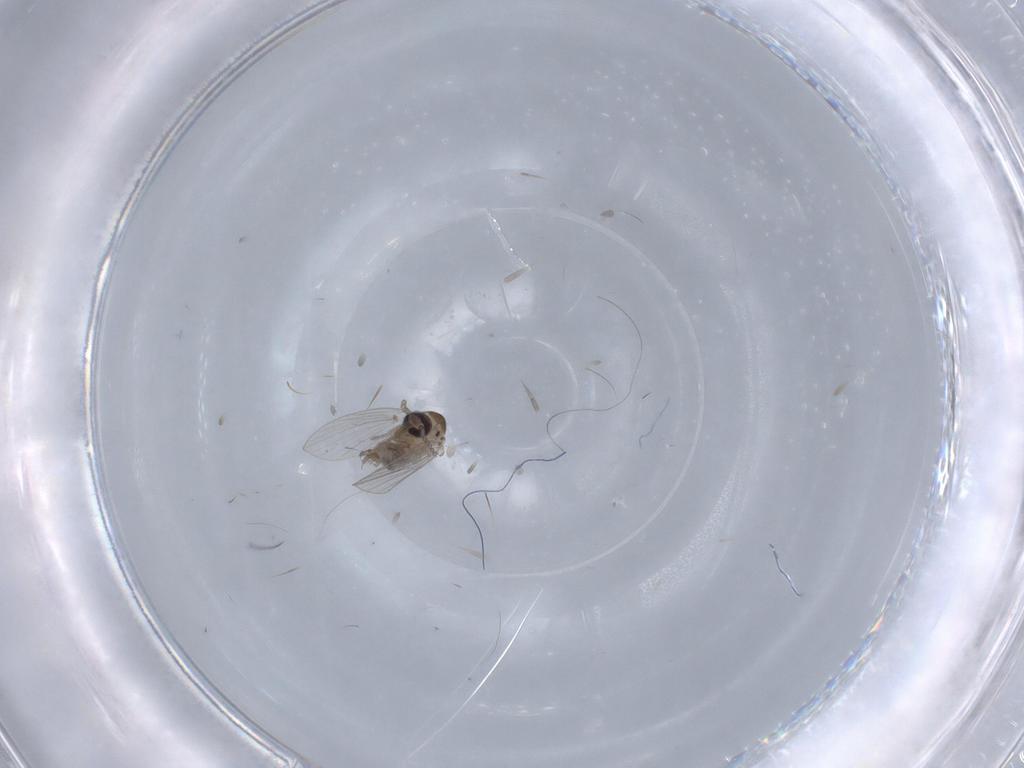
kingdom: Animalia
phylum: Arthropoda
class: Insecta
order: Diptera
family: Psychodidae
